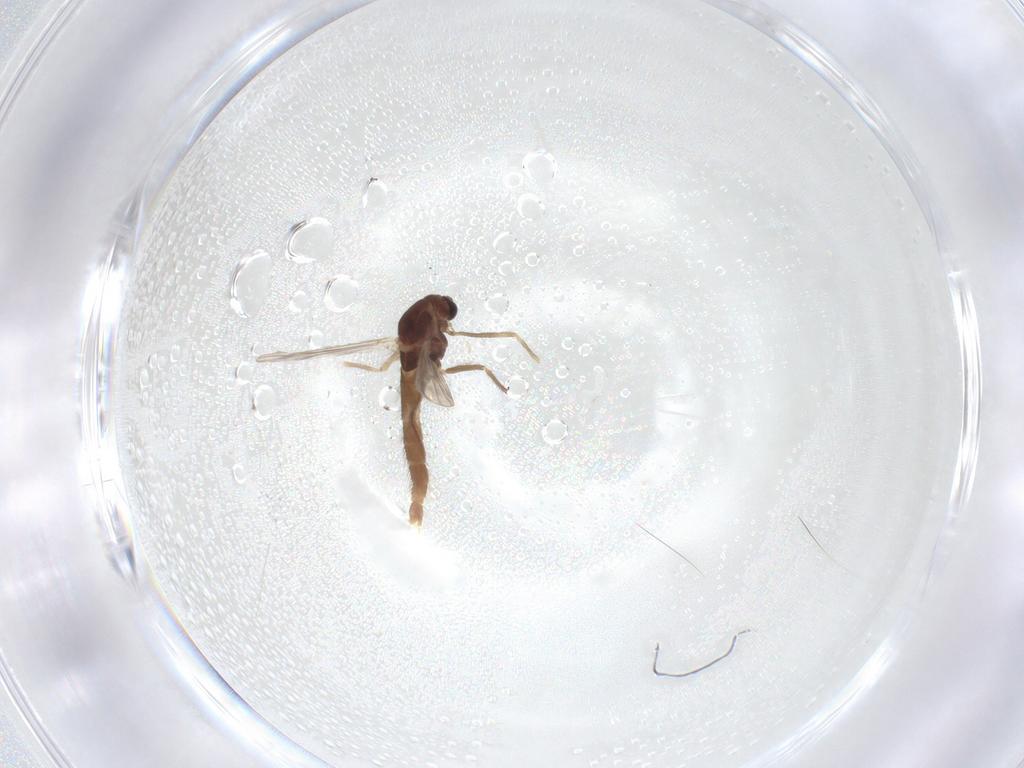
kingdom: Animalia
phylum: Arthropoda
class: Insecta
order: Diptera
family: Chironomidae
